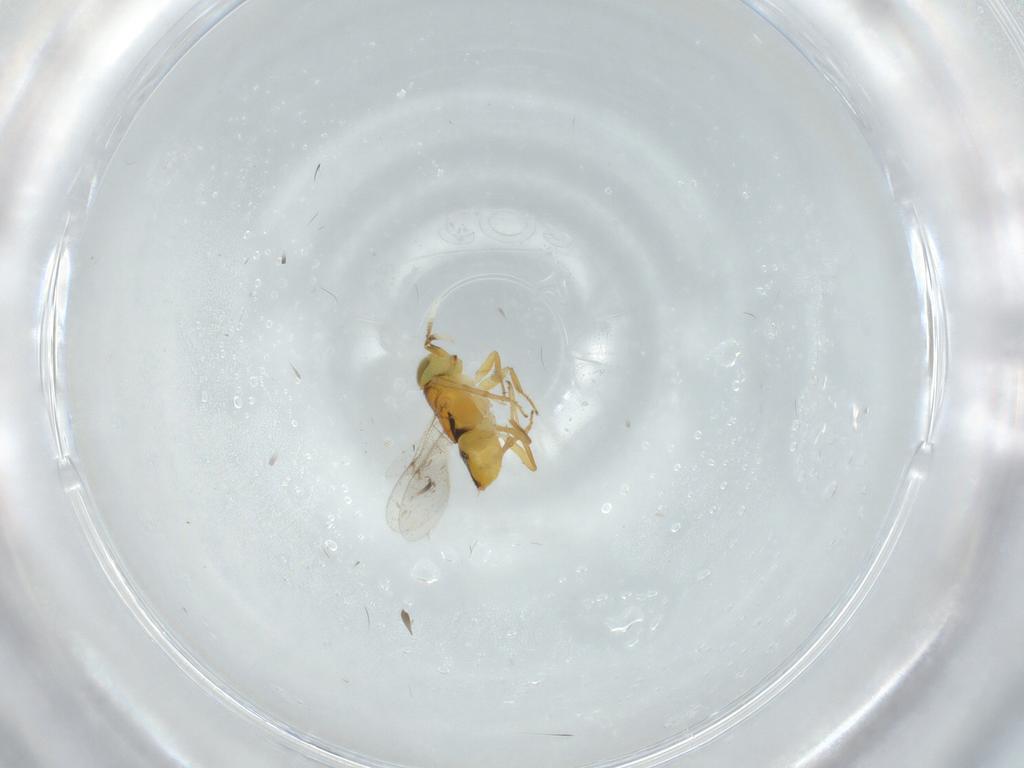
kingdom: Animalia
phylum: Arthropoda
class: Insecta
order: Hymenoptera
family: Encyrtidae
